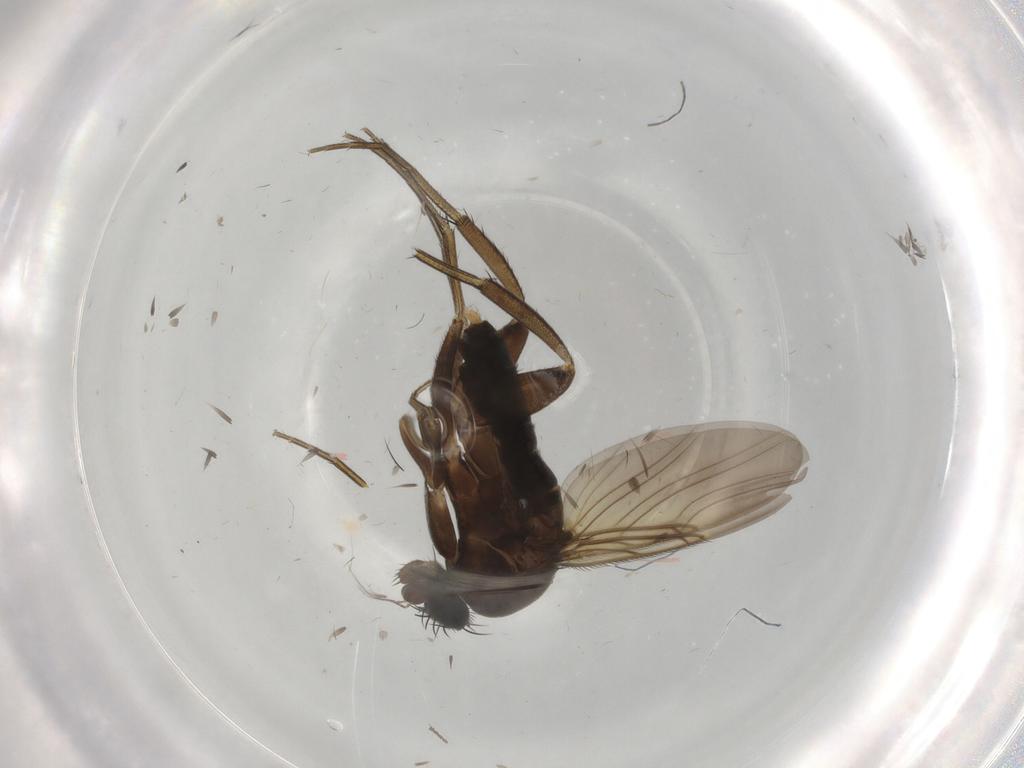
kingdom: Animalia
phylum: Arthropoda
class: Insecta
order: Diptera
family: Phoridae
